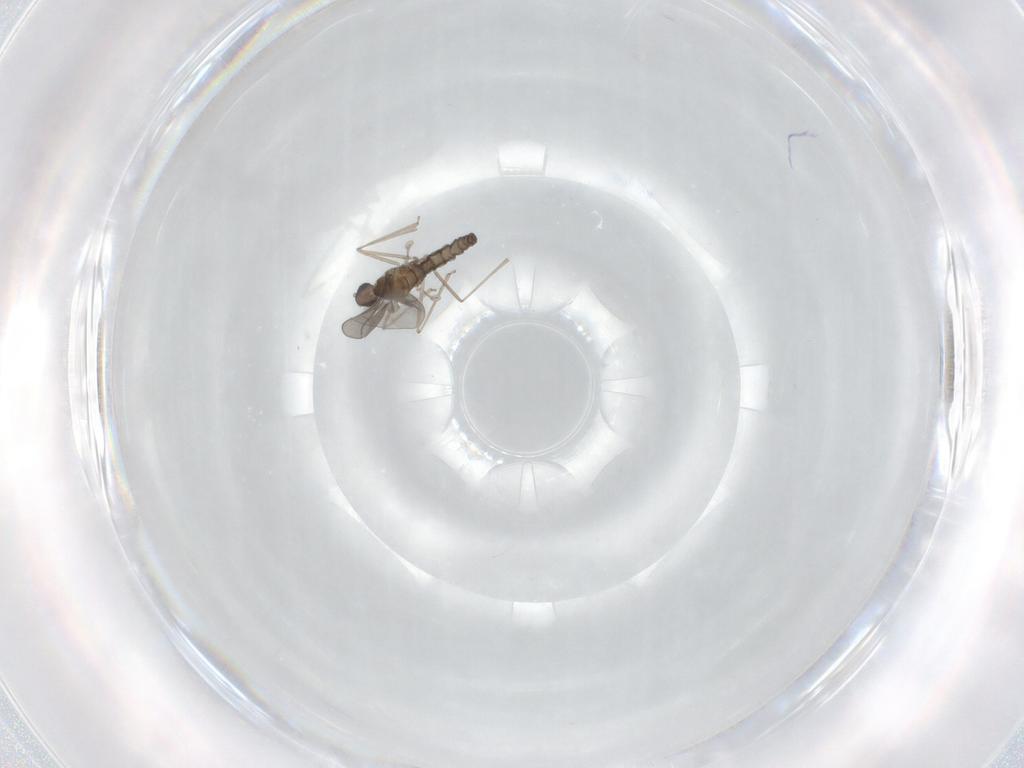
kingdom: Animalia
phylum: Arthropoda
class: Insecta
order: Diptera
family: Cecidomyiidae
